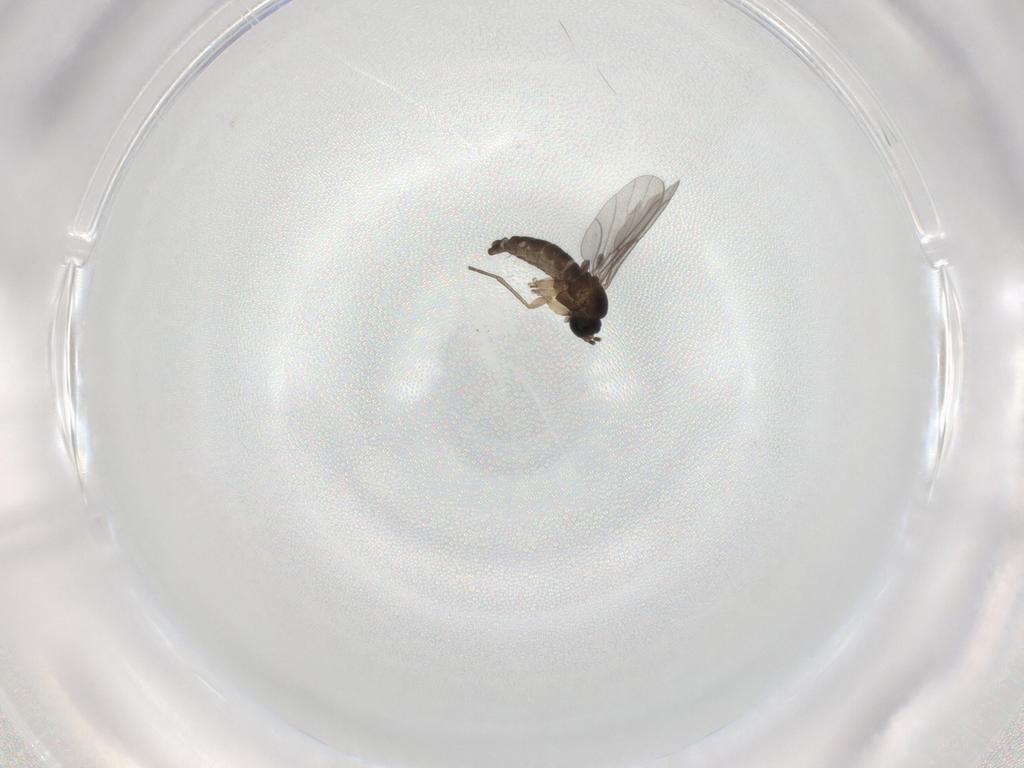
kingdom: Animalia
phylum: Arthropoda
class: Insecta
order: Diptera
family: Sciaridae
